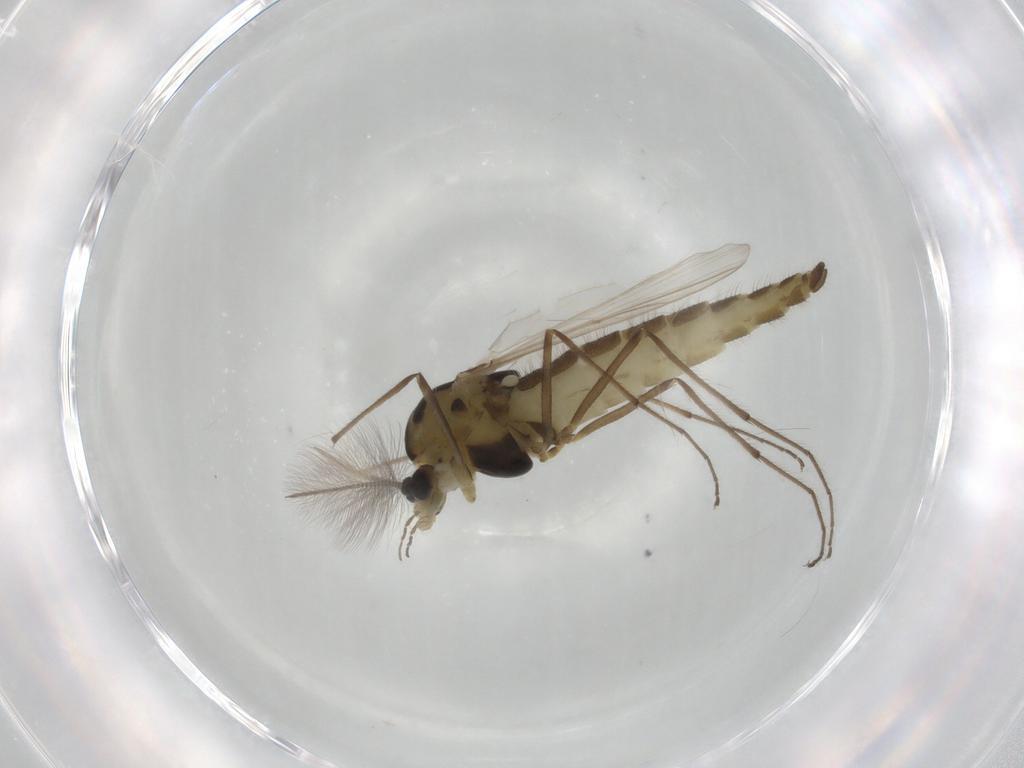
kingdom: Animalia
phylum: Arthropoda
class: Insecta
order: Diptera
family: Chironomidae
